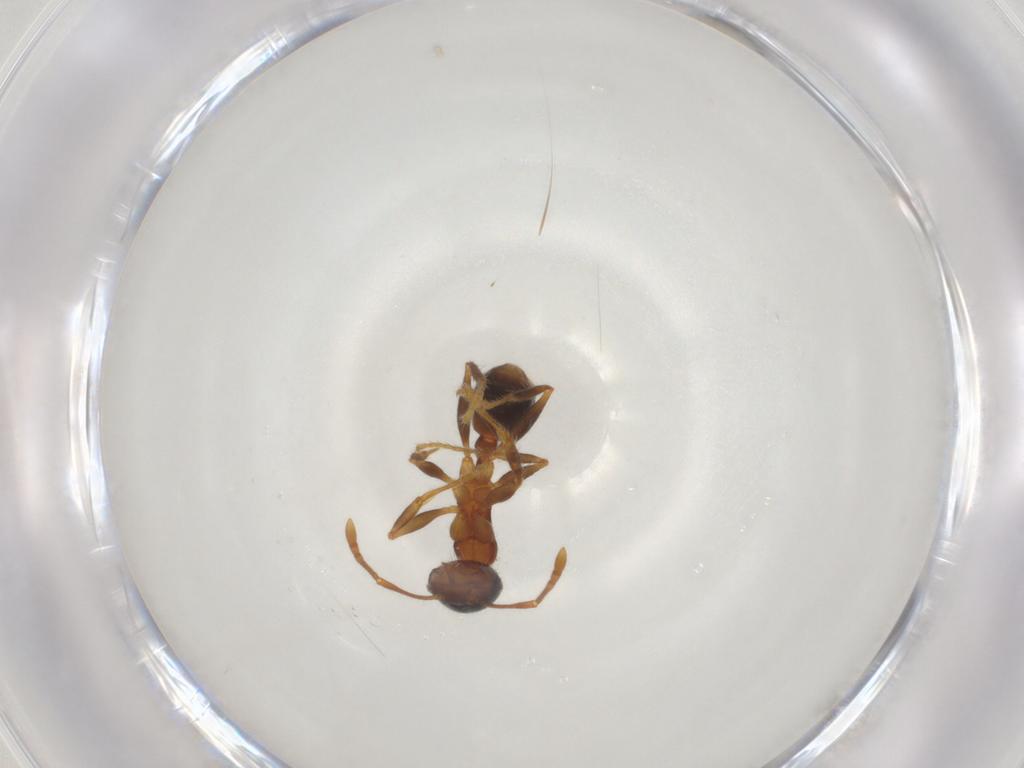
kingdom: Animalia
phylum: Arthropoda
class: Insecta
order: Hymenoptera
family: Formicidae
